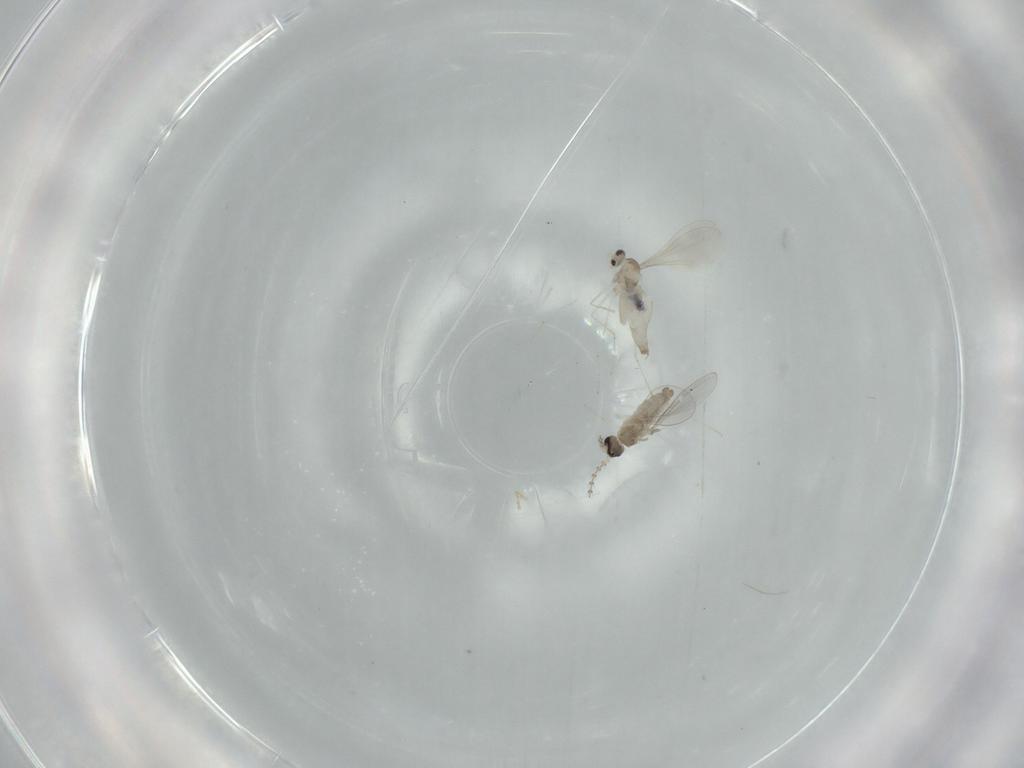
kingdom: Animalia
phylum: Arthropoda
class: Insecta
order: Diptera
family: Cecidomyiidae
